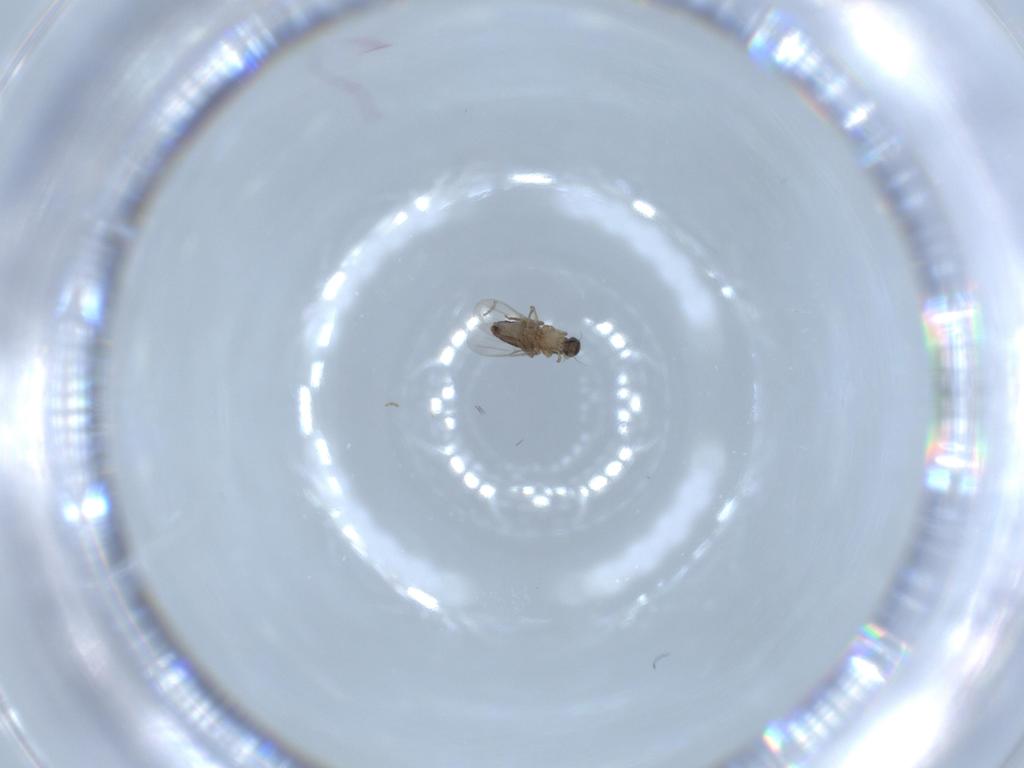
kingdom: Animalia
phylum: Arthropoda
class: Insecta
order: Diptera
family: Phoridae
